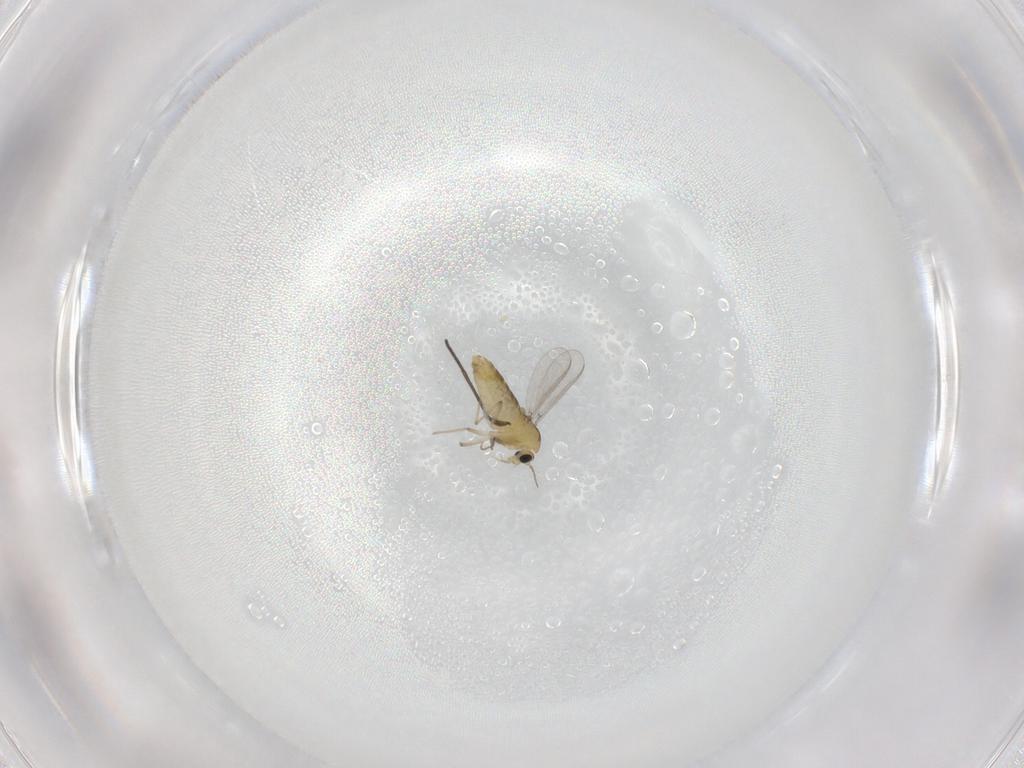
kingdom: Animalia
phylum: Arthropoda
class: Insecta
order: Diptera
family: Chironomidae
